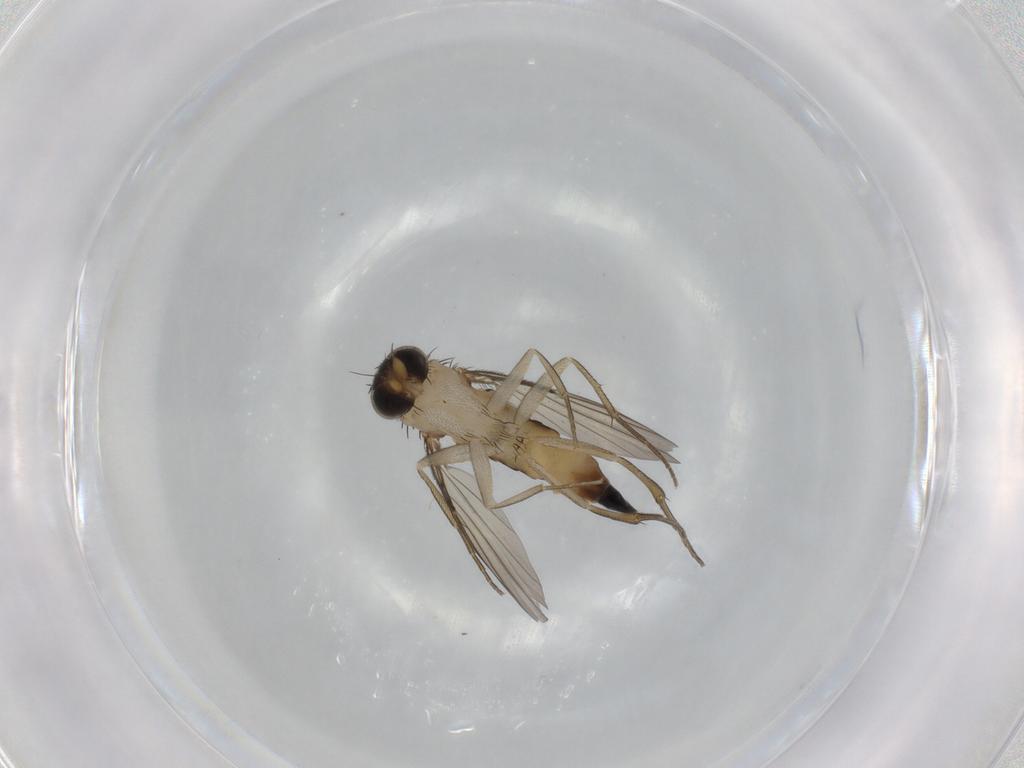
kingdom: Animalia
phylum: Arthropoda
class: Insecta
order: Diptera
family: Phoridae
